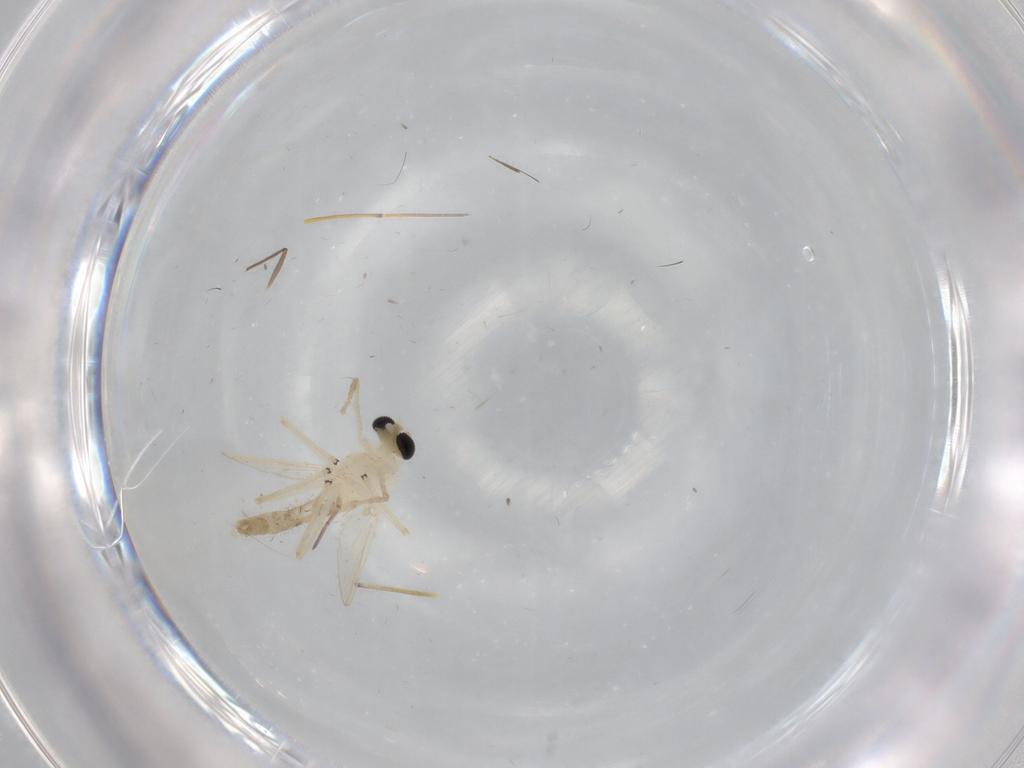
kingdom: Animalia
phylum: Arthropoda
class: Insecta
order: Diptera
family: Chironomidae
